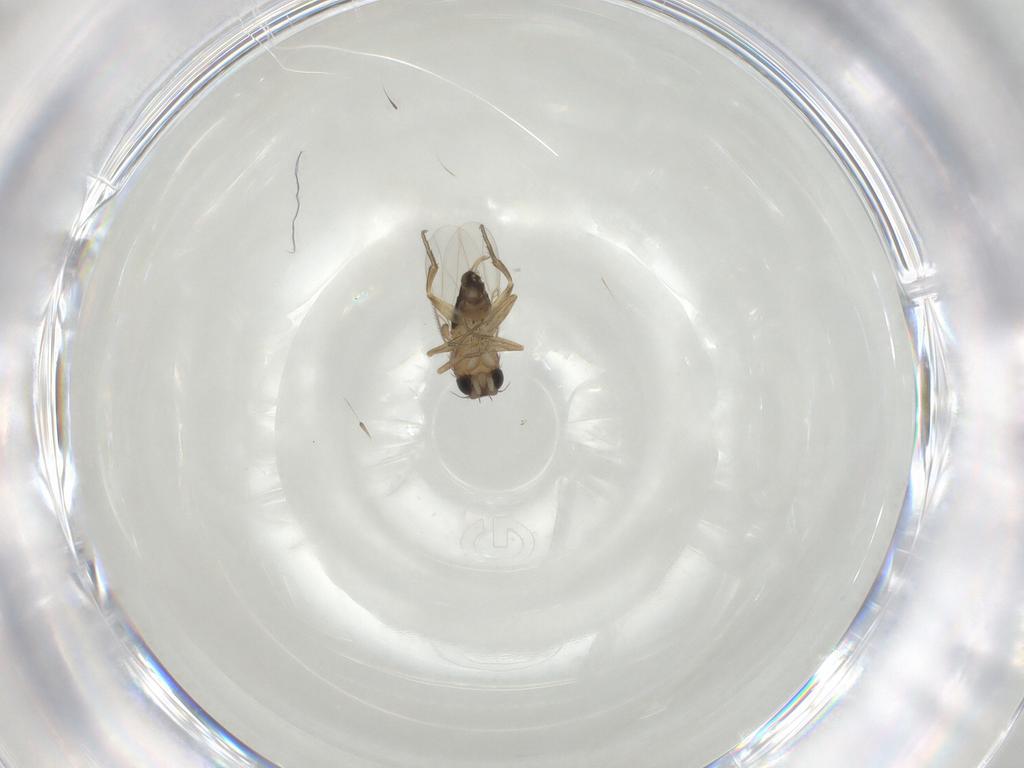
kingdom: Animalia
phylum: Arthropoda
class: Insecta
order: Diptera
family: Phoridae
